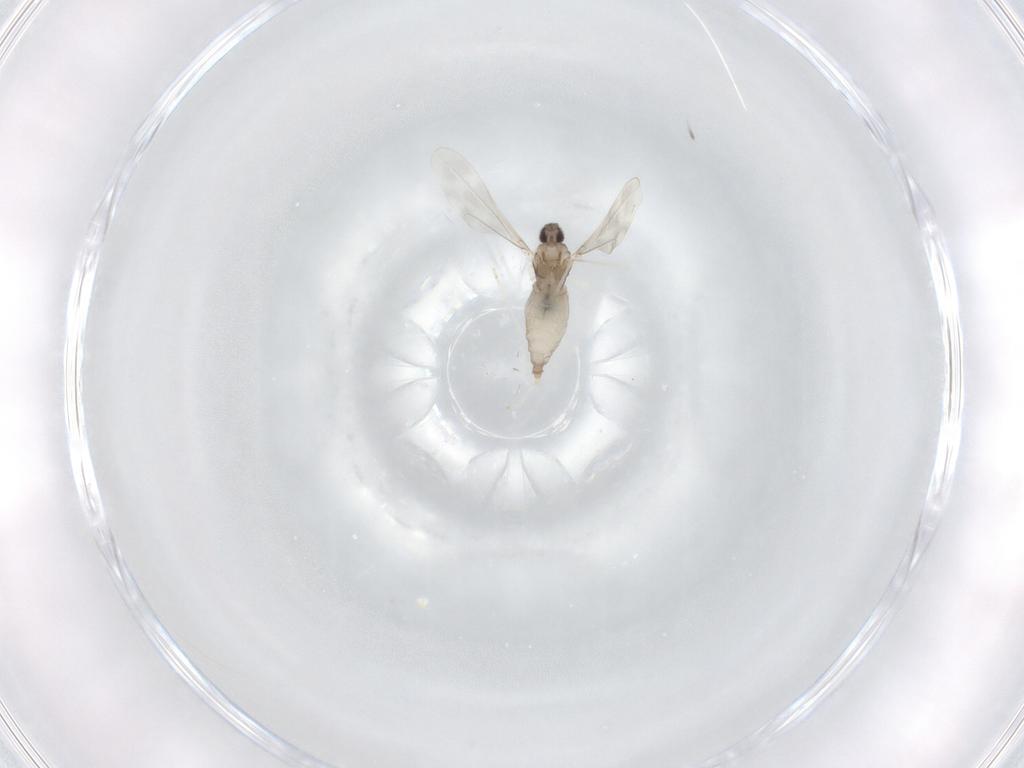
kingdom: Animalia
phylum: Arthropoda
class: Insecta
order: Diptera
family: Cecidomyiidae
